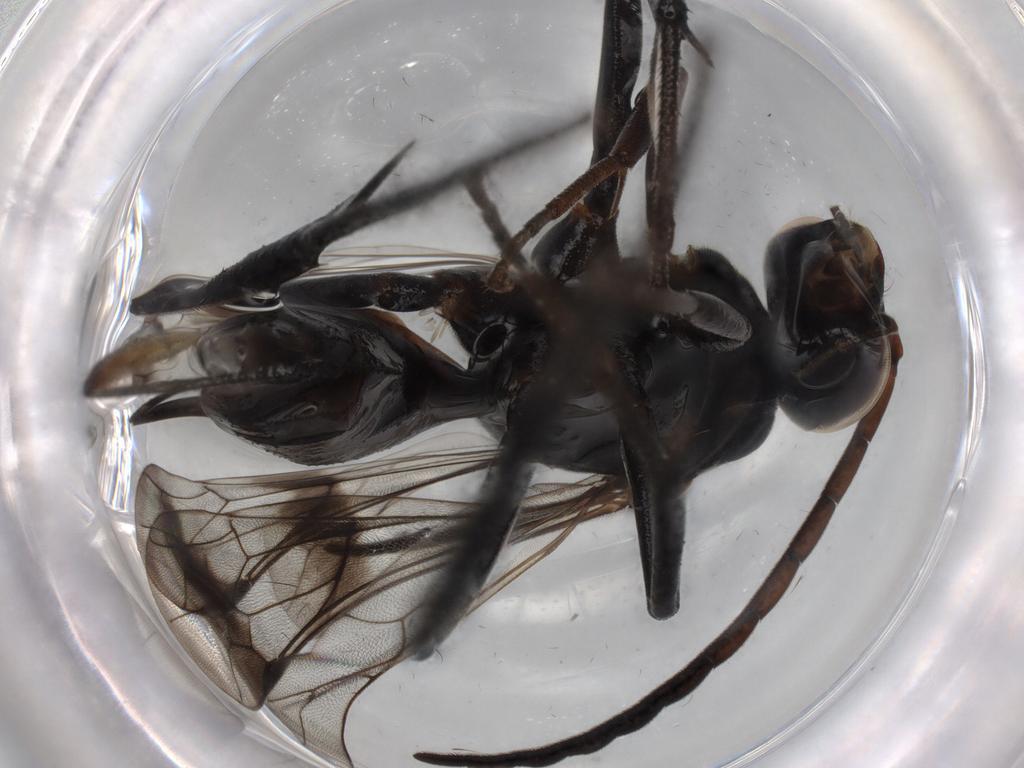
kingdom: Animalia
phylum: Arthropoda
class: Insecta
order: Hymenoptera
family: Pompilidae
